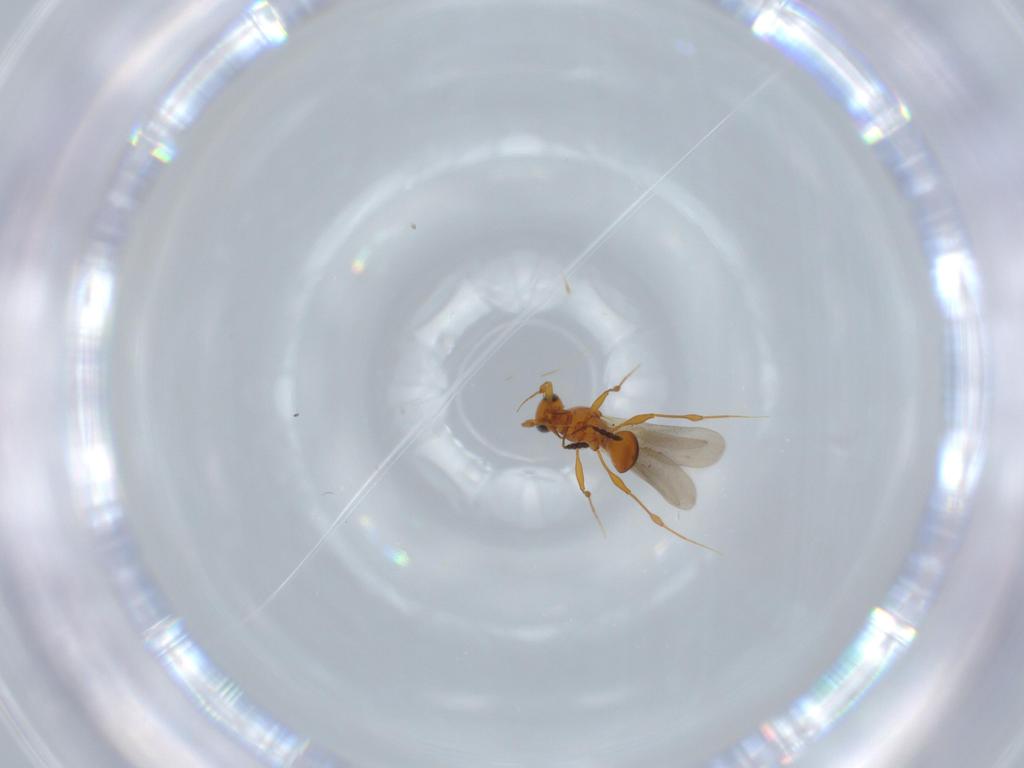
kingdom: Animalia
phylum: Arthropoda
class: Insecta
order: Hymenoptera
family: Platygastridae
